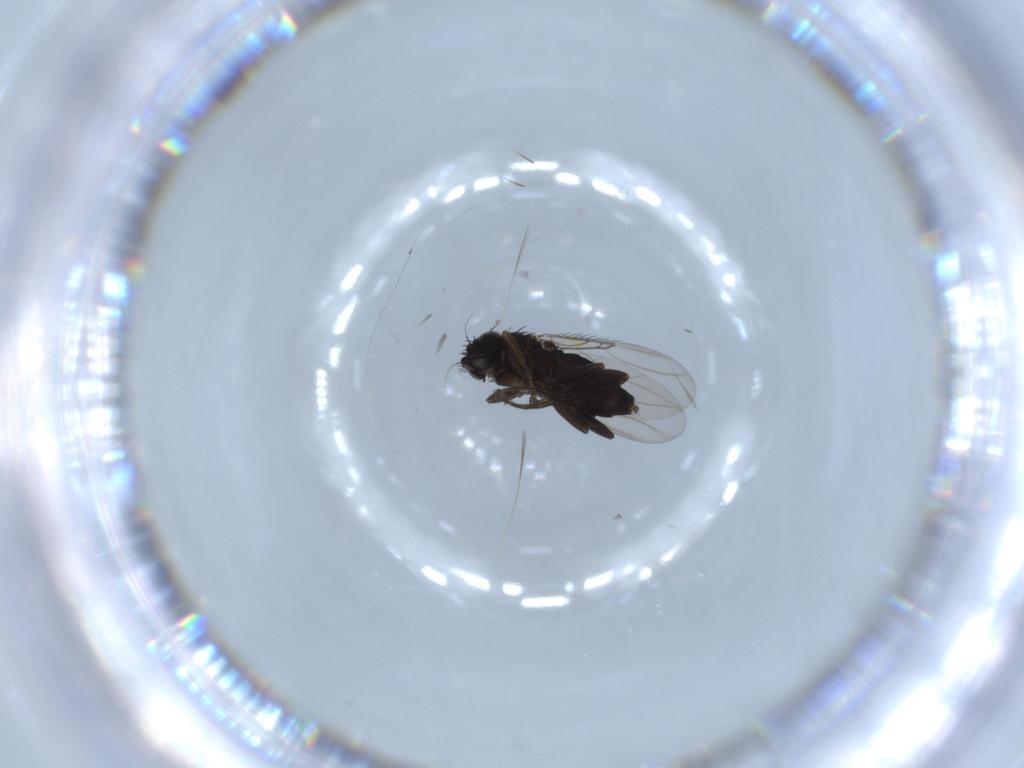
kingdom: Animalia
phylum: Arthropoda
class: Insecta
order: Diptera
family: Phoridae
